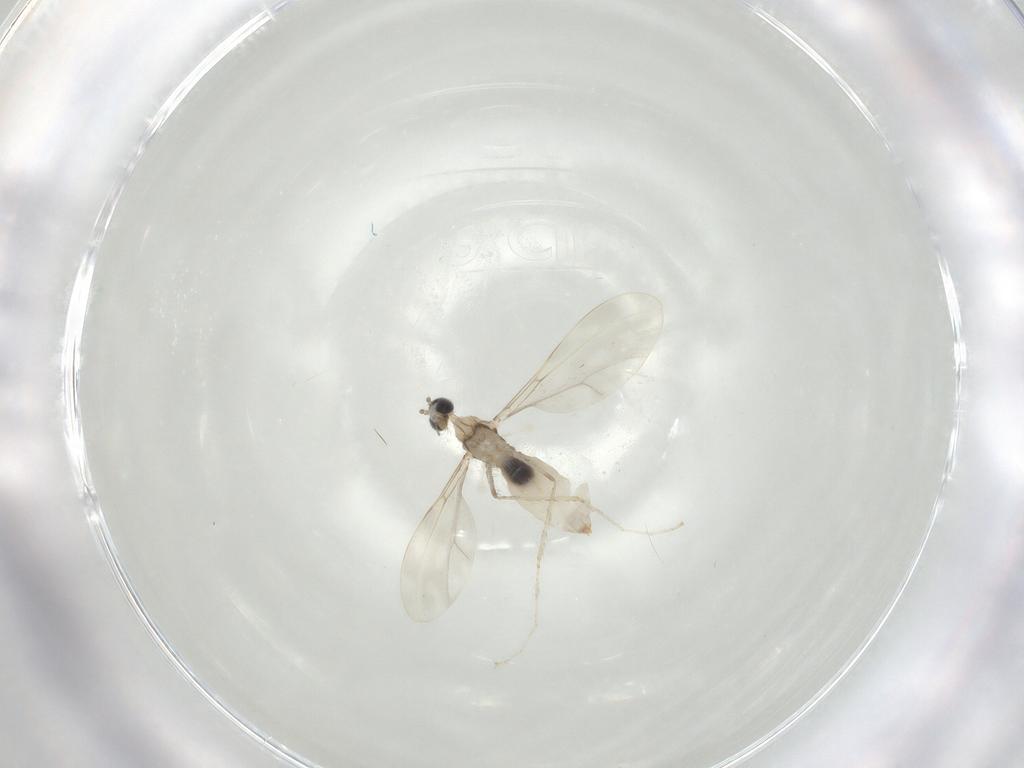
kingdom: Animalia
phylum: Arthropoda
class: Insecta
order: Diptera
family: Cecidomyiidae
